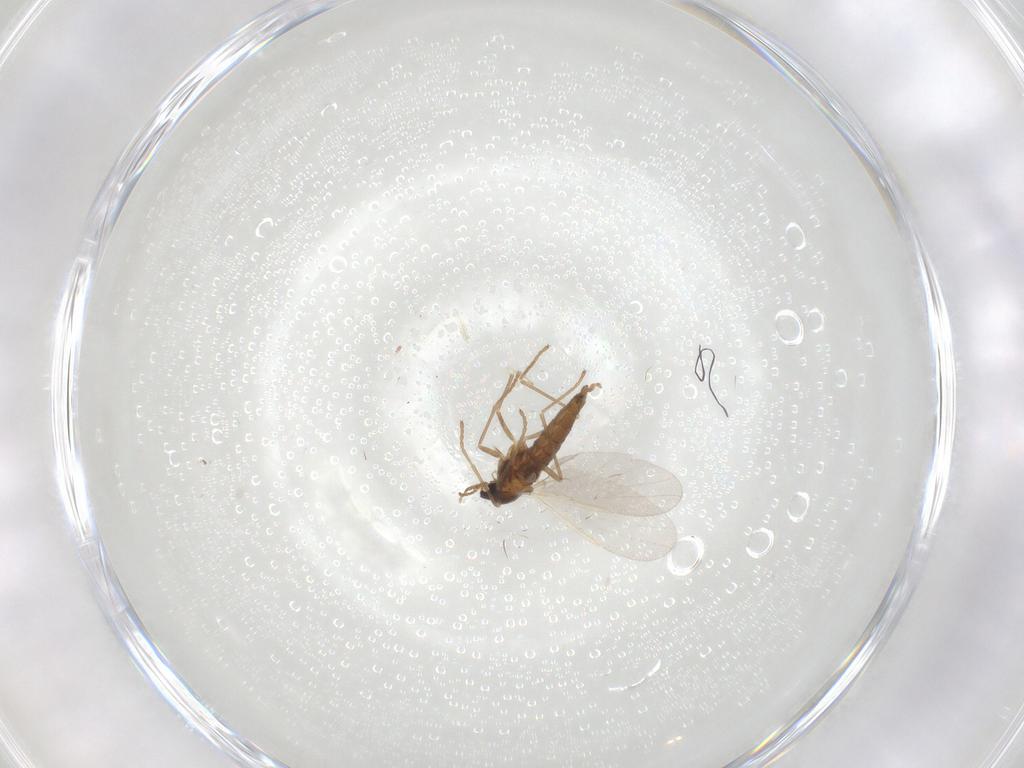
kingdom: Animalia
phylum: Arthropoda
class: Insecta
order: Diptera
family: Cecidomyiidae
